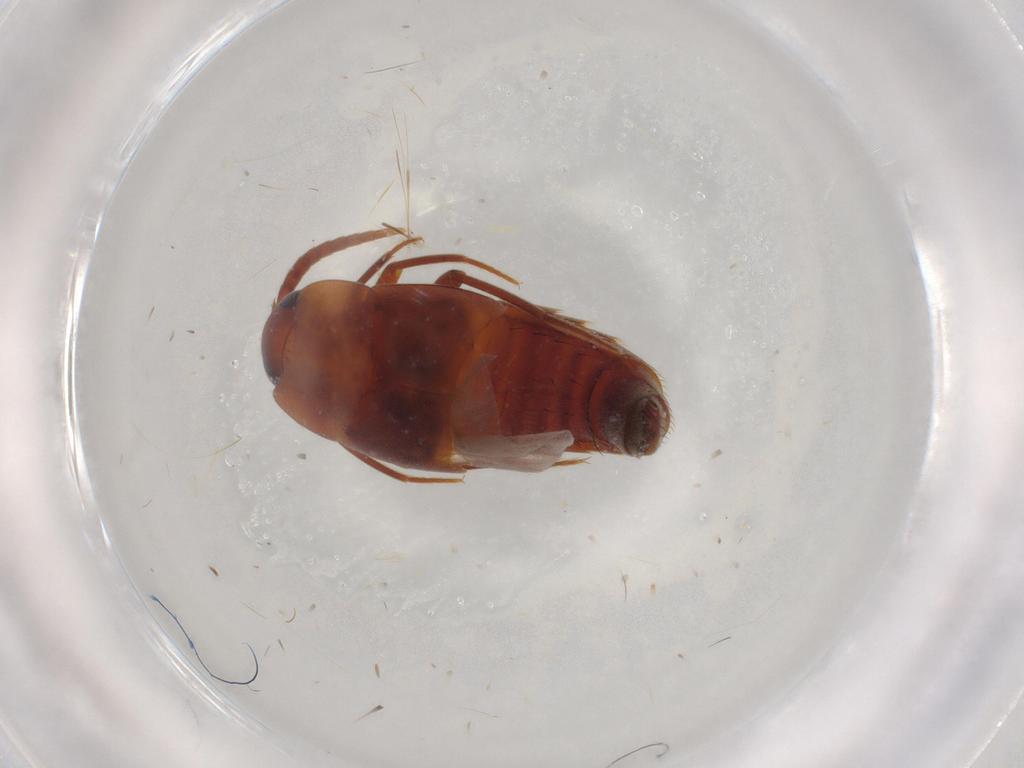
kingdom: Animalia
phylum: Arthropoda
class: Insecta
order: Coleoptera
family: Staphylinidae
